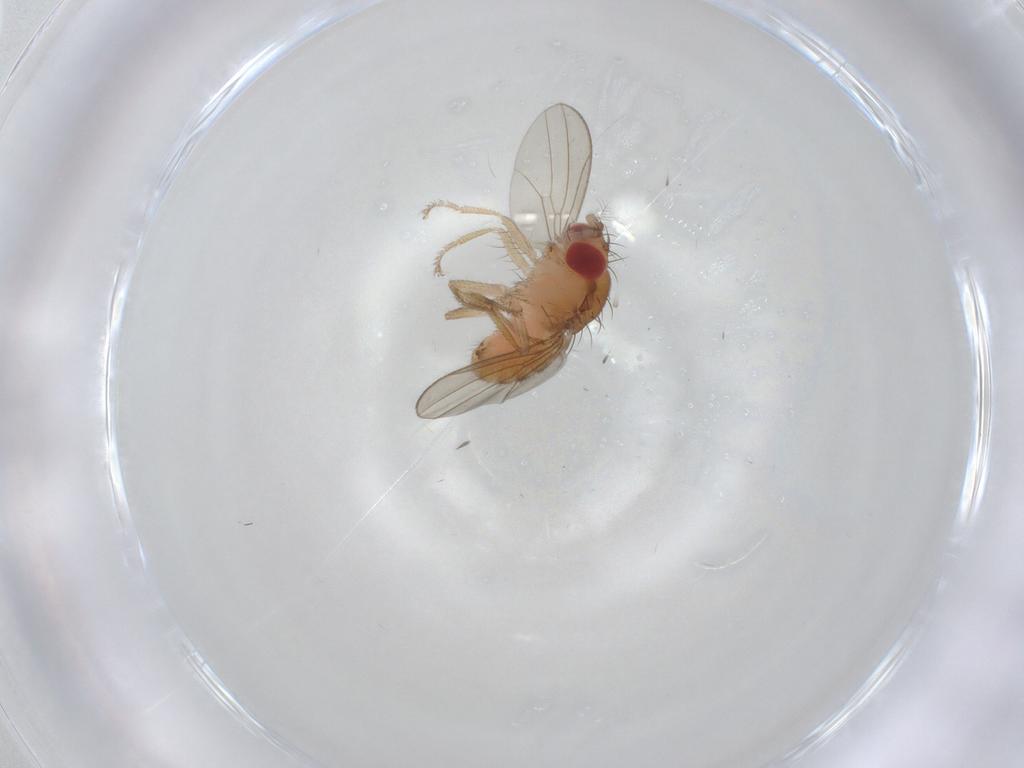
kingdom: Animalia
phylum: Arthropoda
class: Insecta
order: Diptera
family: Drosophilidae
